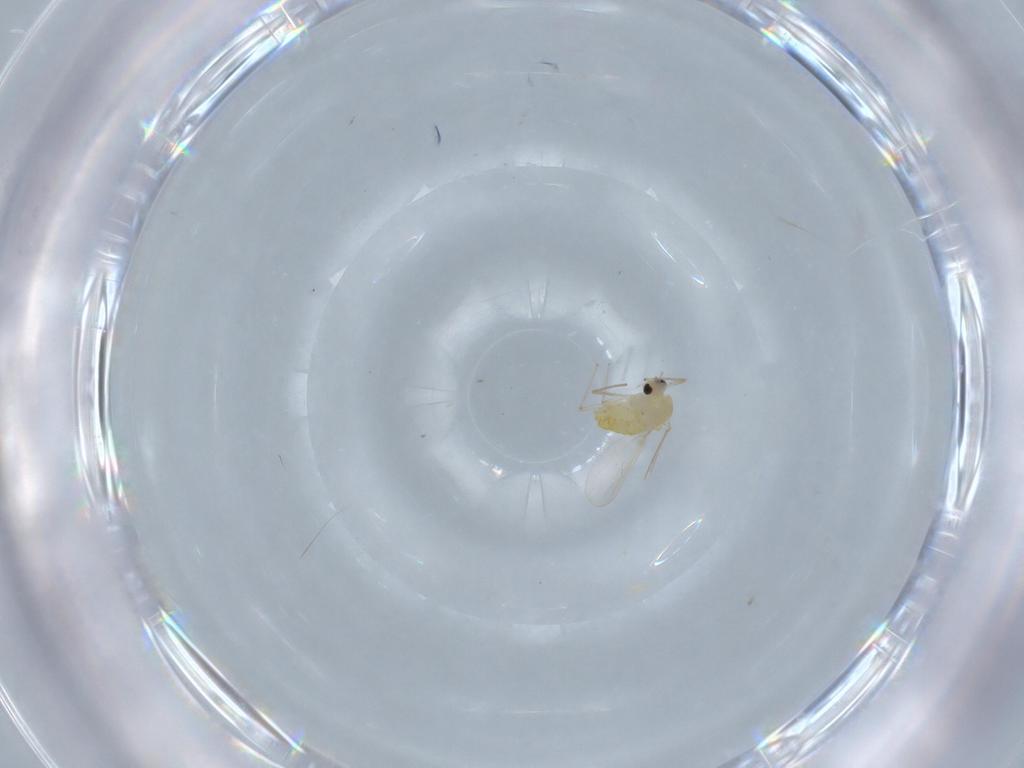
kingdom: Animalia
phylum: Arthropoda
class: Insecta
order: Diptera
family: Chironomidae
